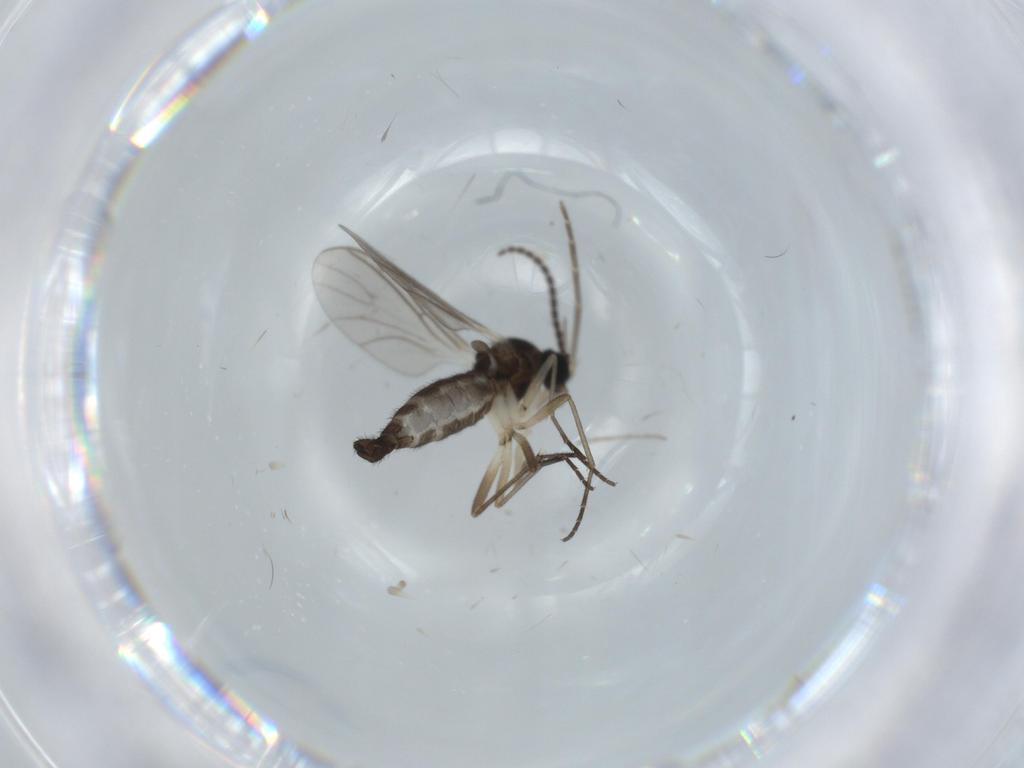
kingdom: Animalia
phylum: Arthropoda
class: Insecta
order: Diptera
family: Sciaridae
